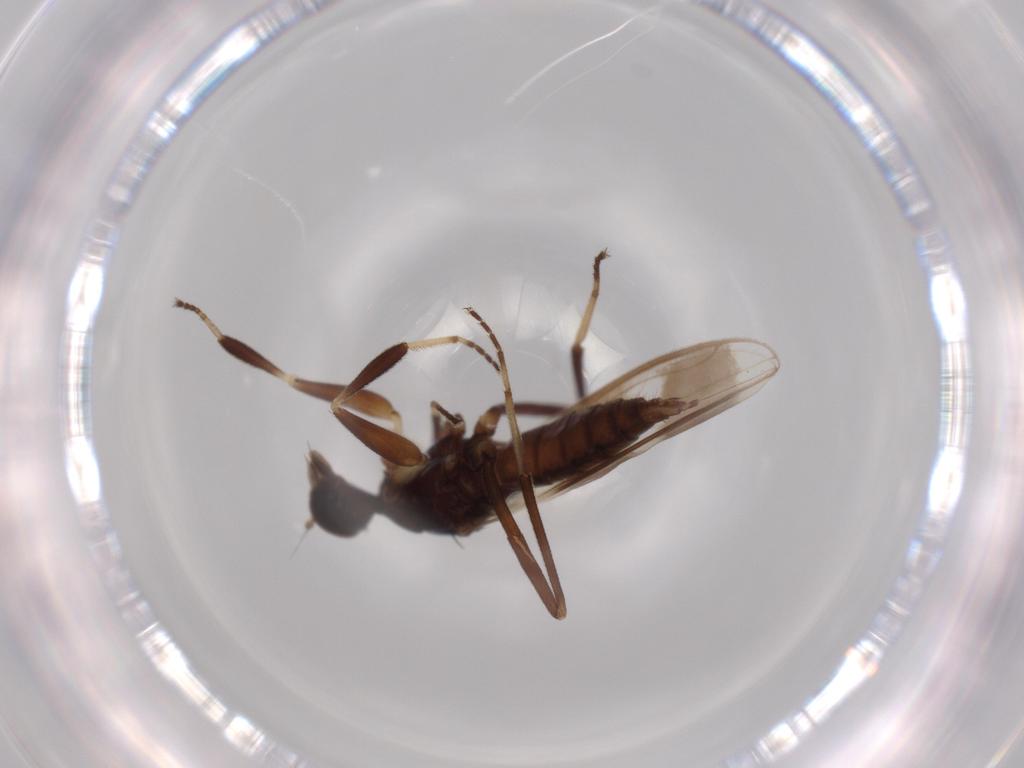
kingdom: Animalia
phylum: Arthropoda
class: Insecta
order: Diptera
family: Hybotidae
